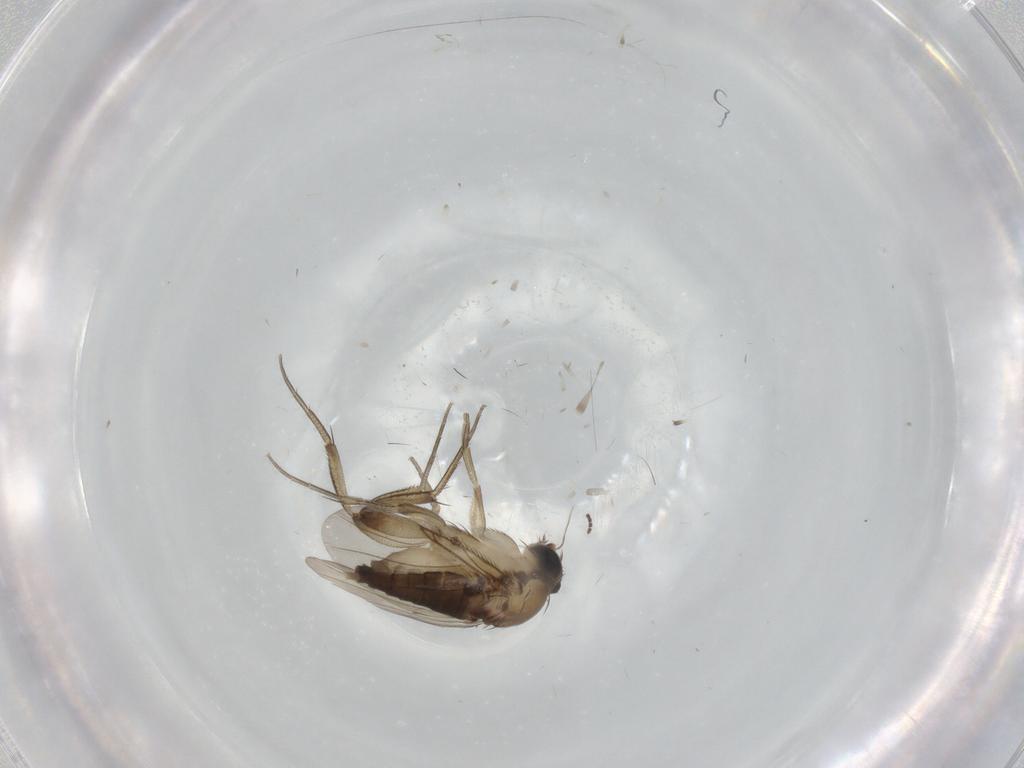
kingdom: Animalia
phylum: Arthropoda
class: Insecta
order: Diptera
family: Phoridae
